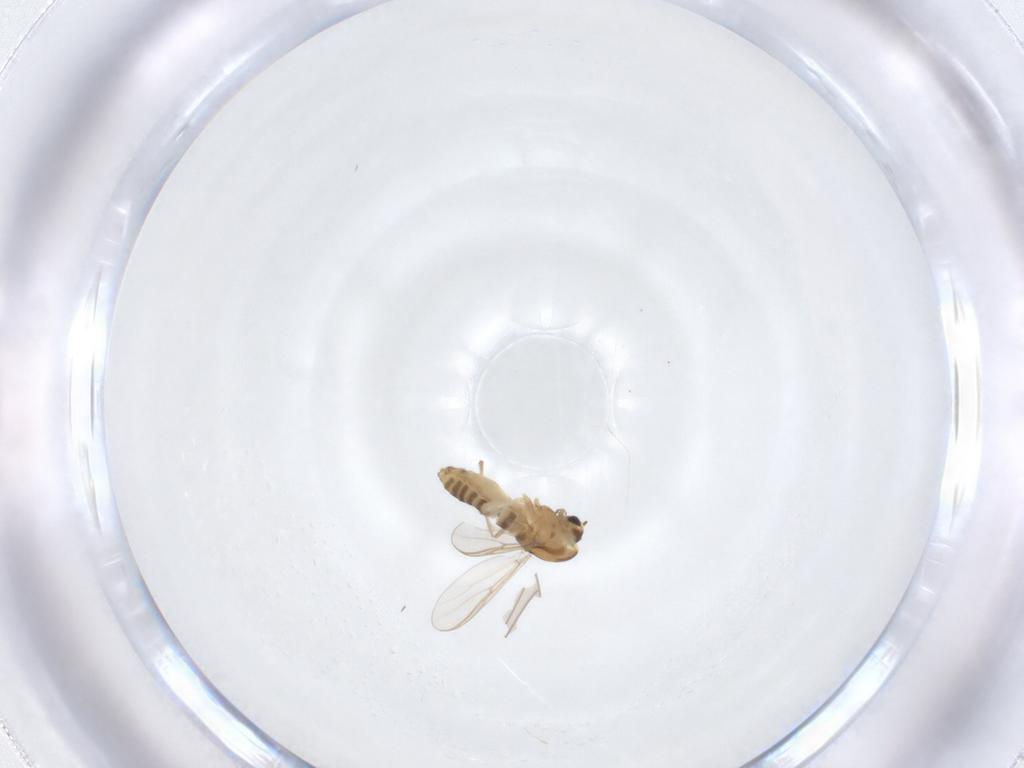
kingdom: Animalia
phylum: Arthropoda
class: Insecta
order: Diptera
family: Chironomidae
